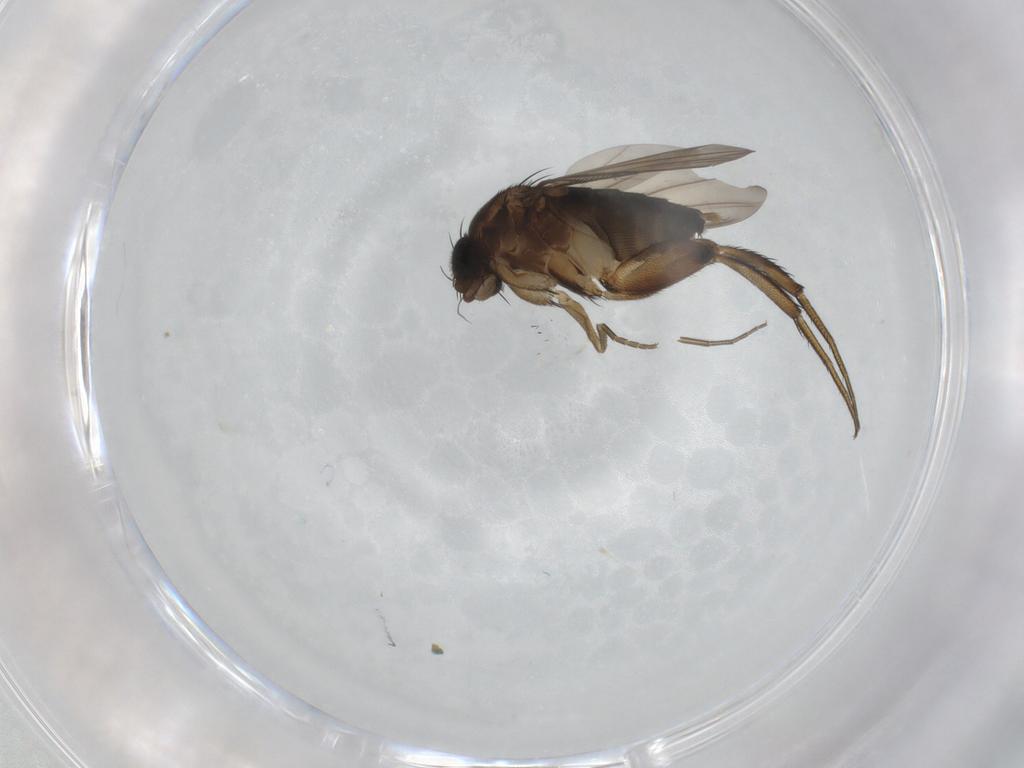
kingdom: Animalia
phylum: Arthropoda
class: Insecta
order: Diptera
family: Phoridae
